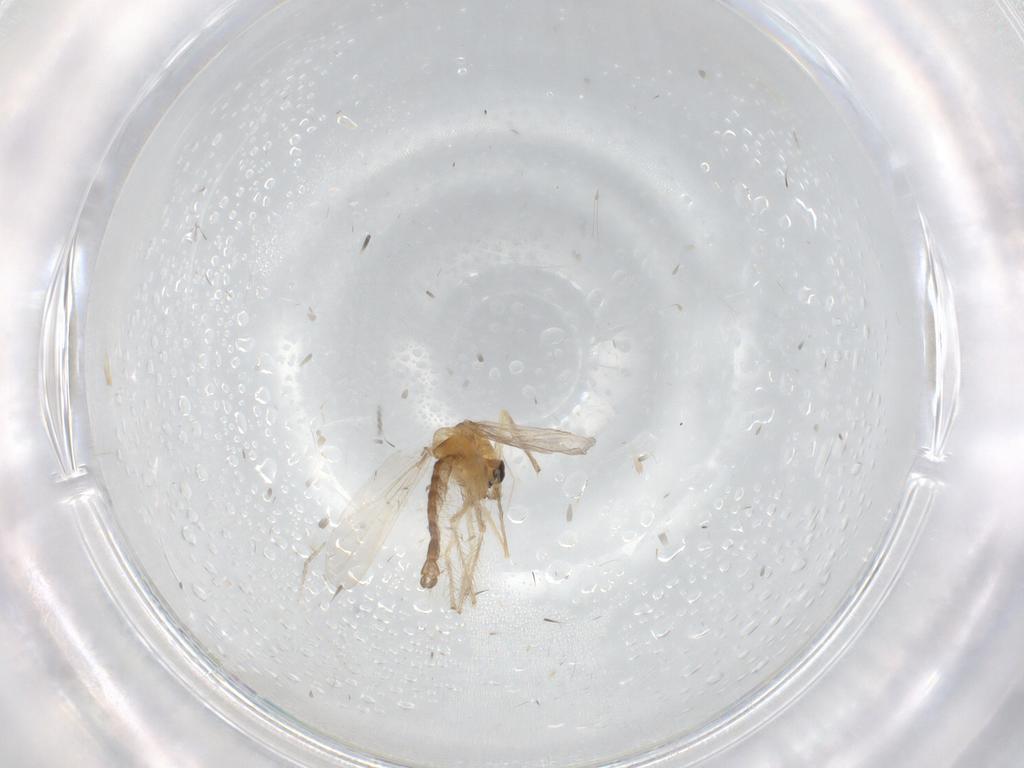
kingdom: Animalia
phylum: Arthropoda
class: Insecta
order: Diptera
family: Chironomidae
